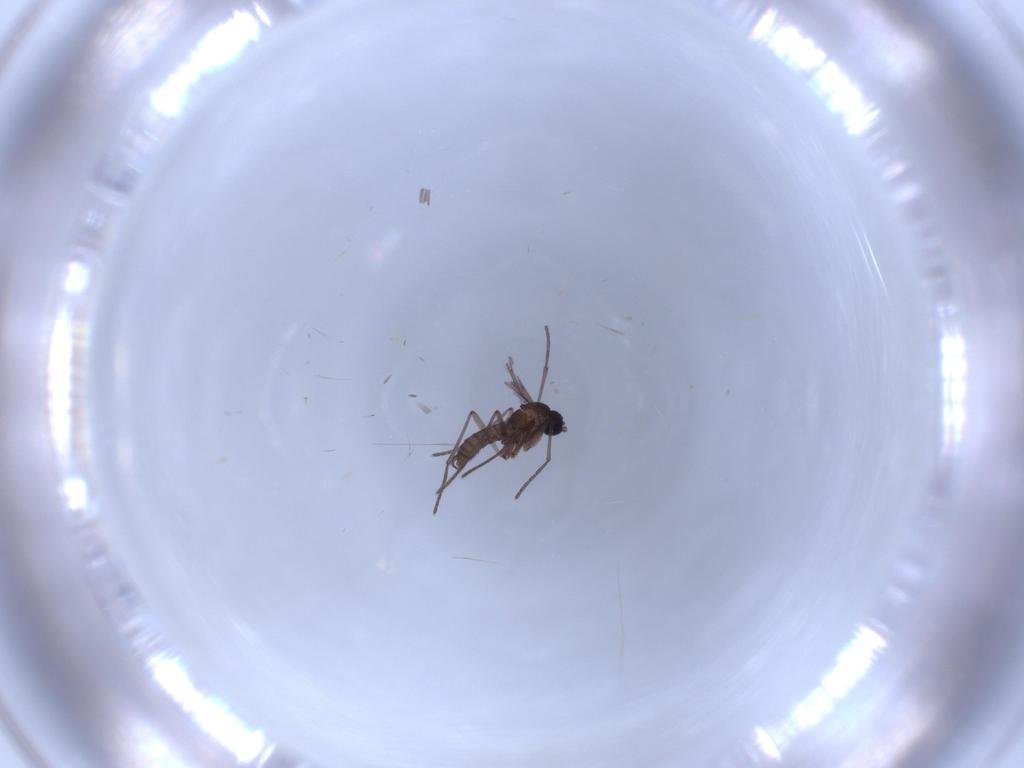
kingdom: Animalia
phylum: Arthropoda
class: Insecta
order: Diptera
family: Sciaridae
